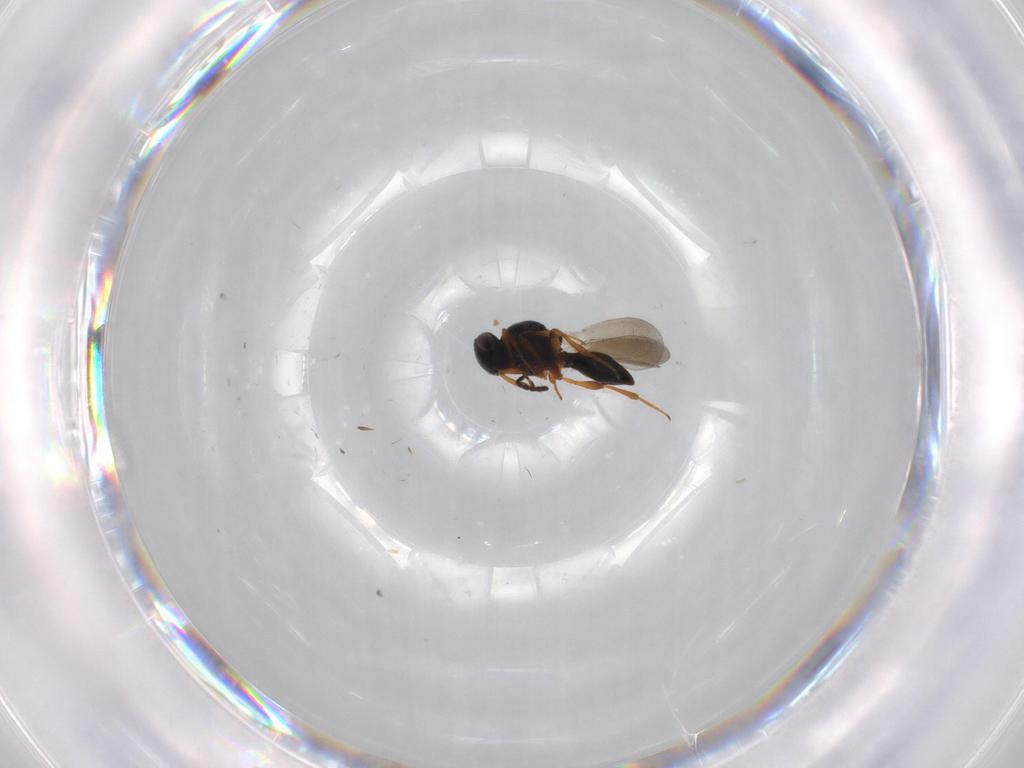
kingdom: Animalia
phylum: Arthropoda
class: Insecta
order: Hymenoptera
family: Platygastridae
